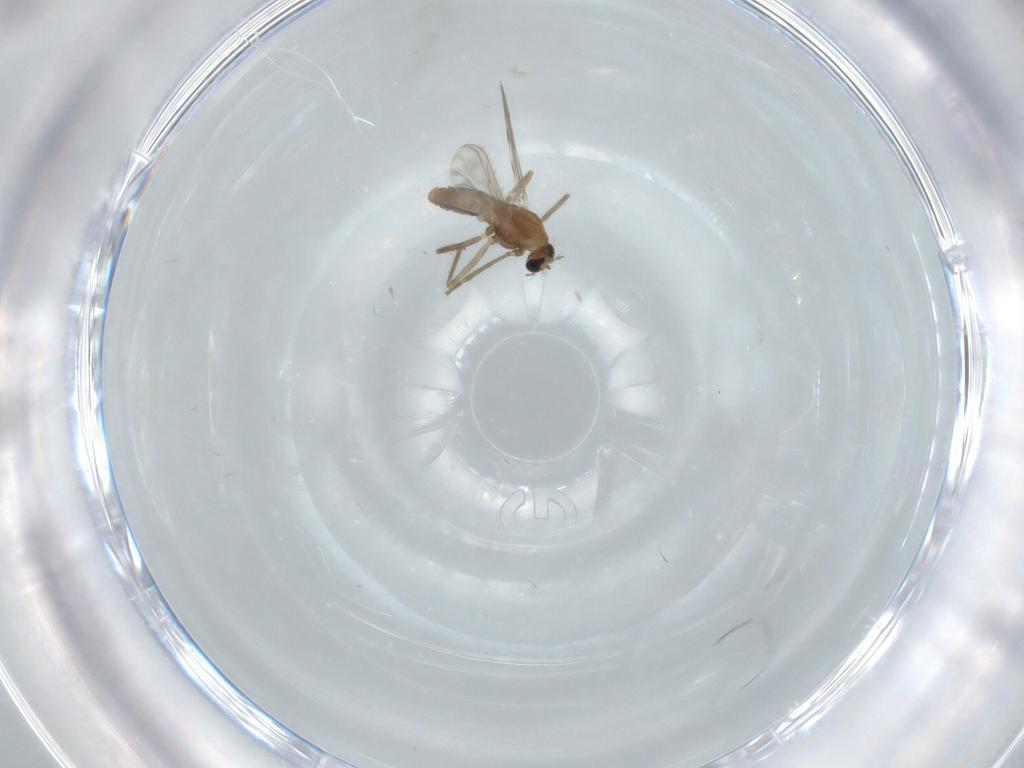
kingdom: Animalia
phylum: Arthropoda
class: Insecta
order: Diptera
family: Chironomidae
